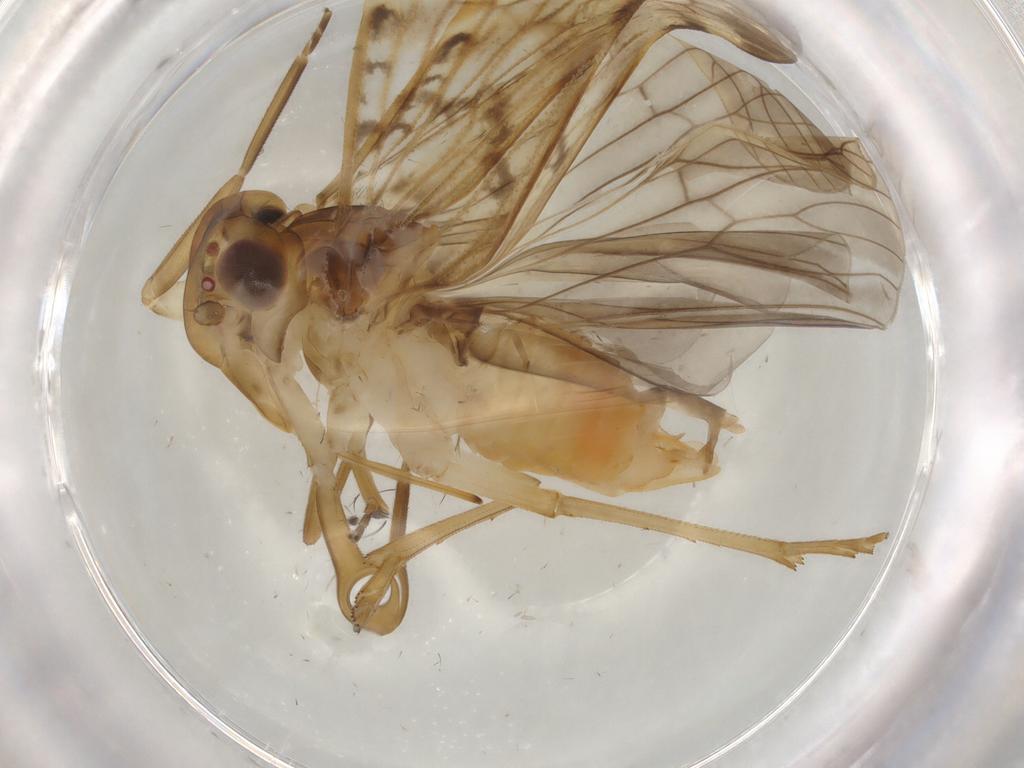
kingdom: Animalia
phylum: Arthropoda
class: Insecta
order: Hemiptera
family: Cixiidae
